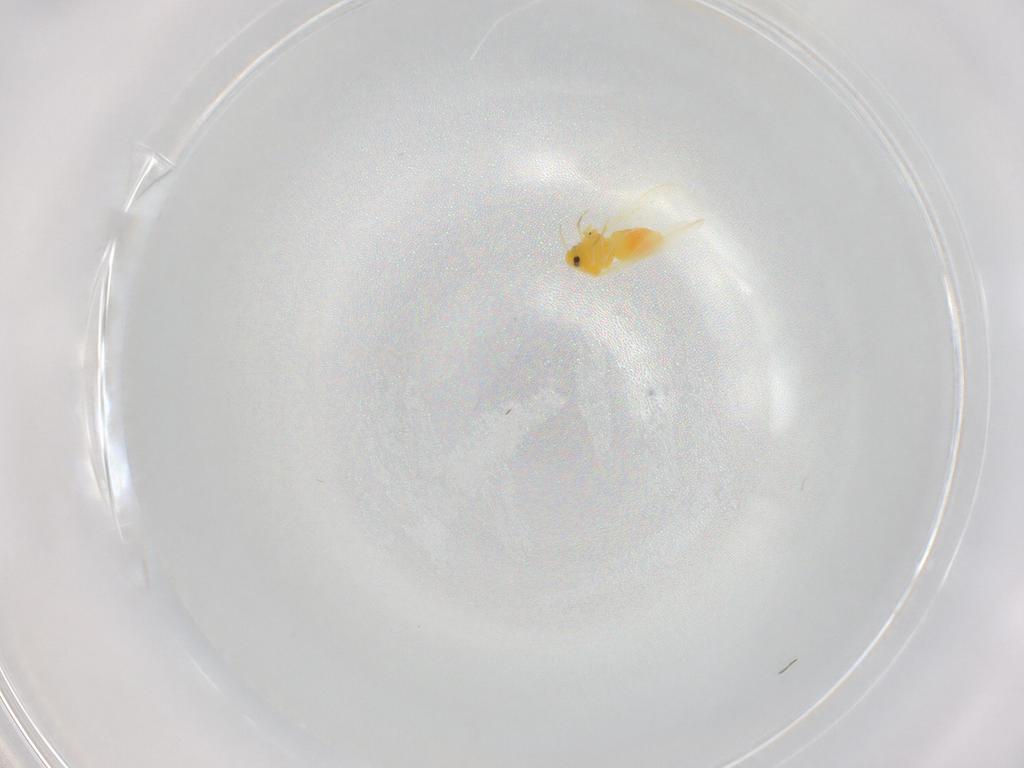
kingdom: Animalia
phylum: Arthropoda
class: Insecta
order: Hemiptera
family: Aleyrodidae
